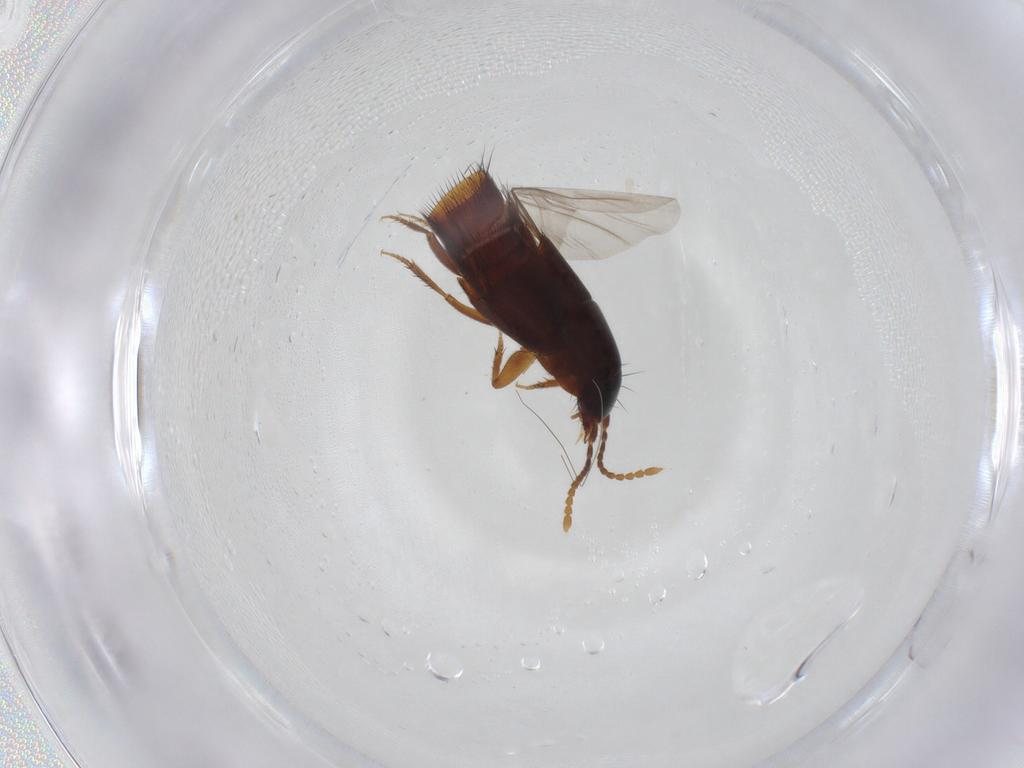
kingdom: Animalia
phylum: Arthropoda
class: Insecta
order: Coleoptera
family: Staphylinidae
